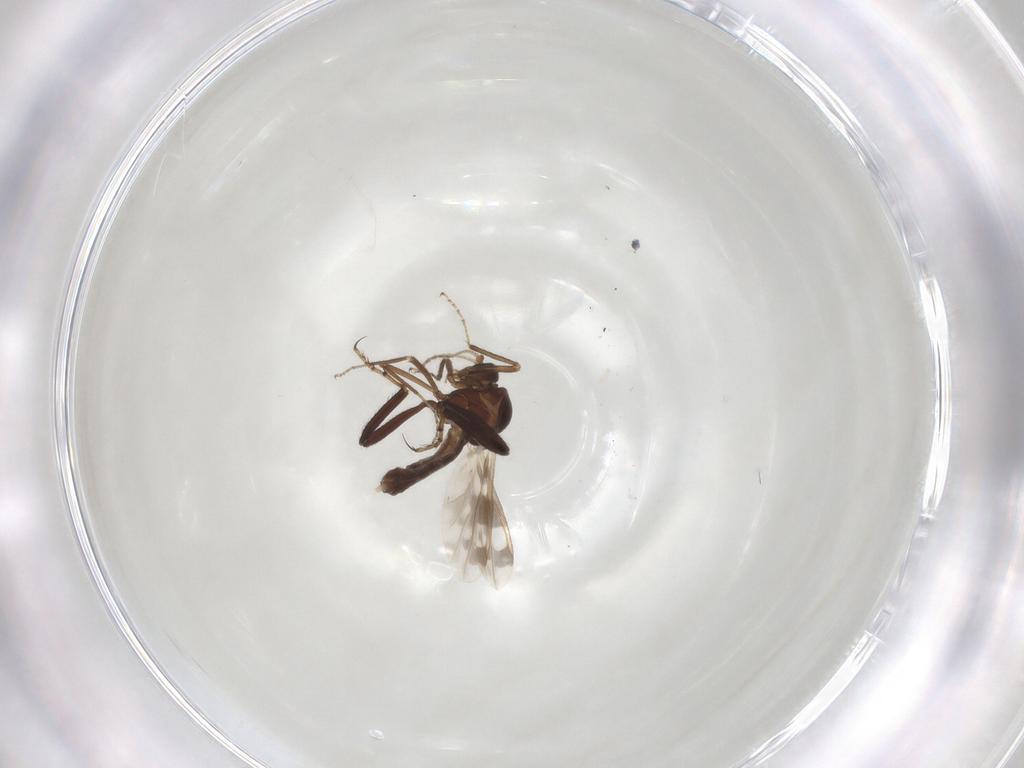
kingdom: Animalia
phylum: Arthropoda
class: Insecta
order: Diptera
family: Ceratopogonidae
